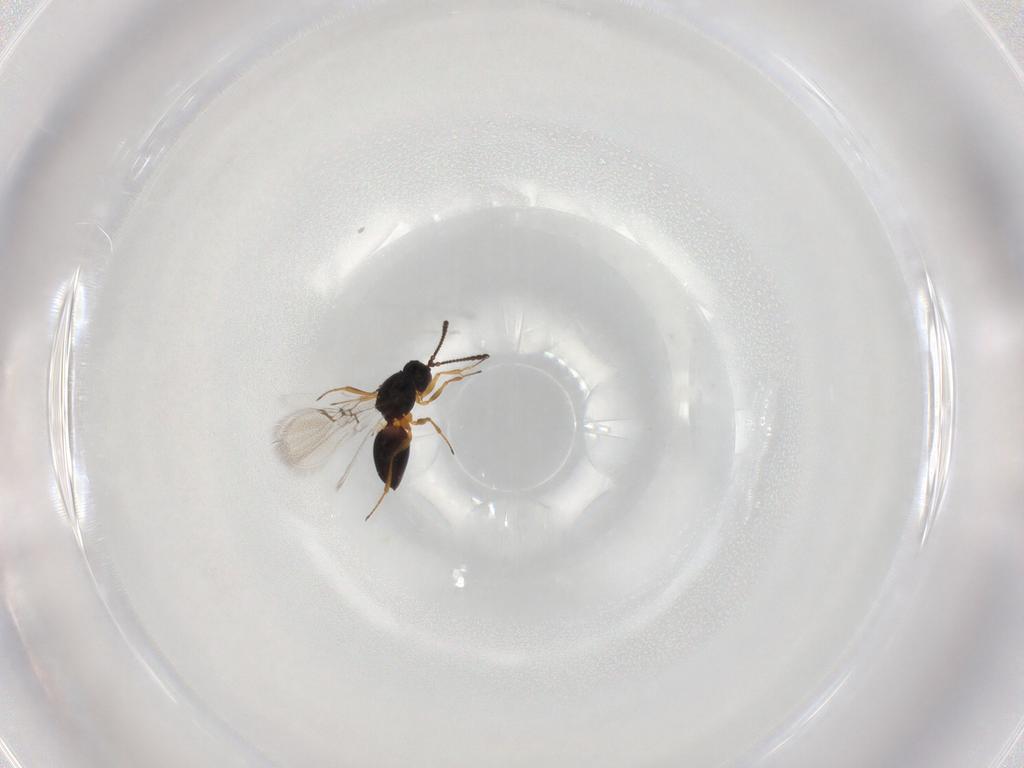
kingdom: Animalia
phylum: Arthropoda
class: Insecta
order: Hymenoptera
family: Figitidae
